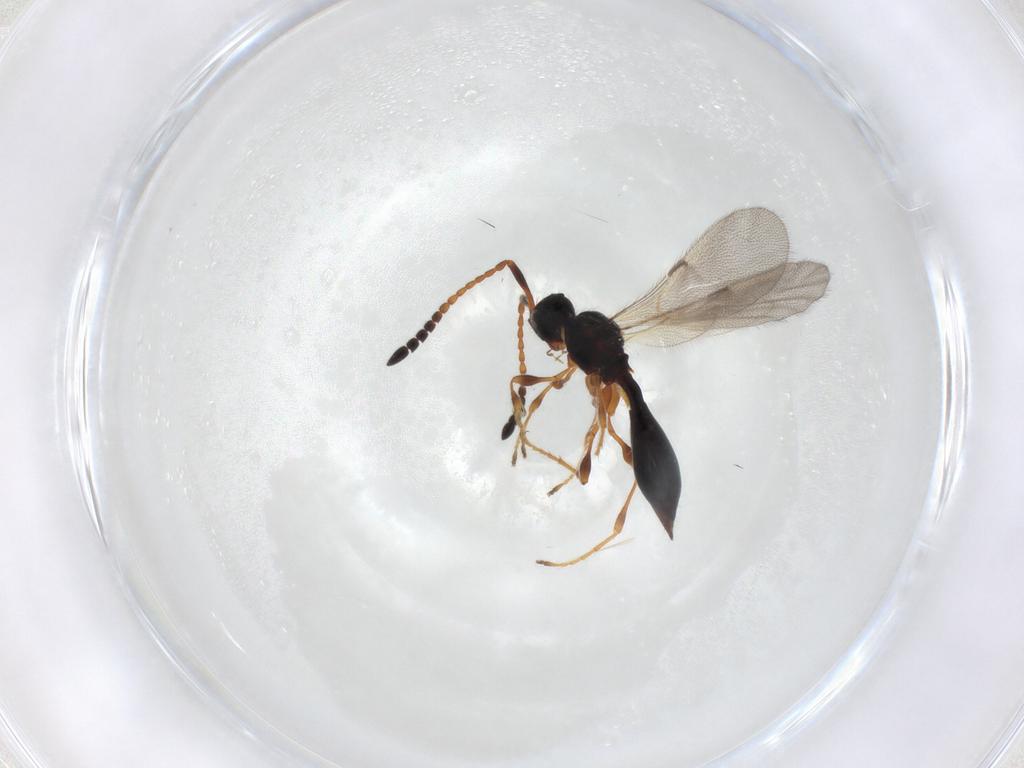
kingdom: Animalia
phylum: Arthropoda
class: Insecta
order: Hymenoptera
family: Diapriidae
